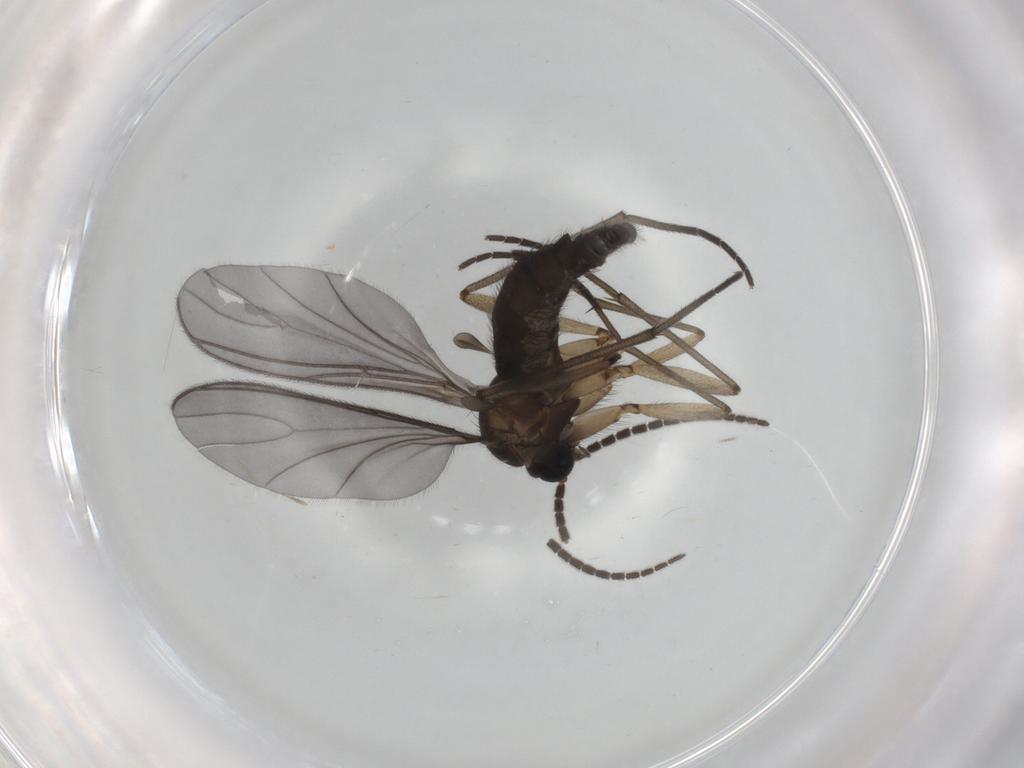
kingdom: Animalia
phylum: Arthropoda
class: Insecta
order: Diptera
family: Sciaridae
